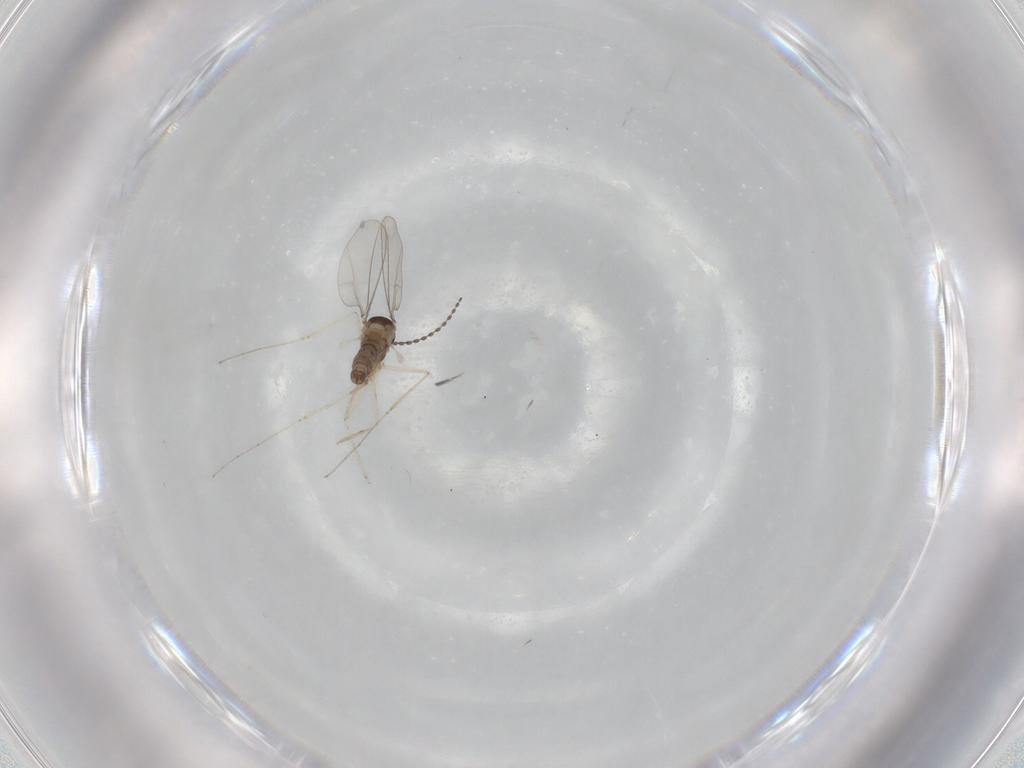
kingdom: Animalia
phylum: Arthropoda
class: Insecta
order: Diptera
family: Cecidomyiidae
